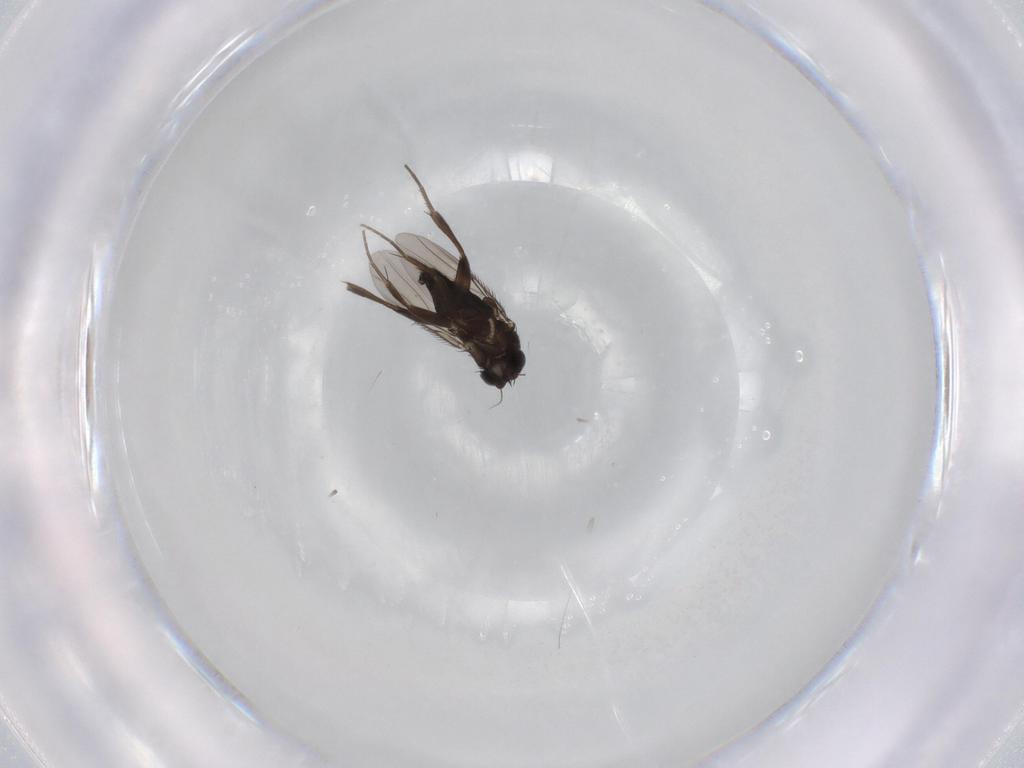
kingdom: Animalia
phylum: Arthropoda
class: Insecta
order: Diptera
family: Phoridae
